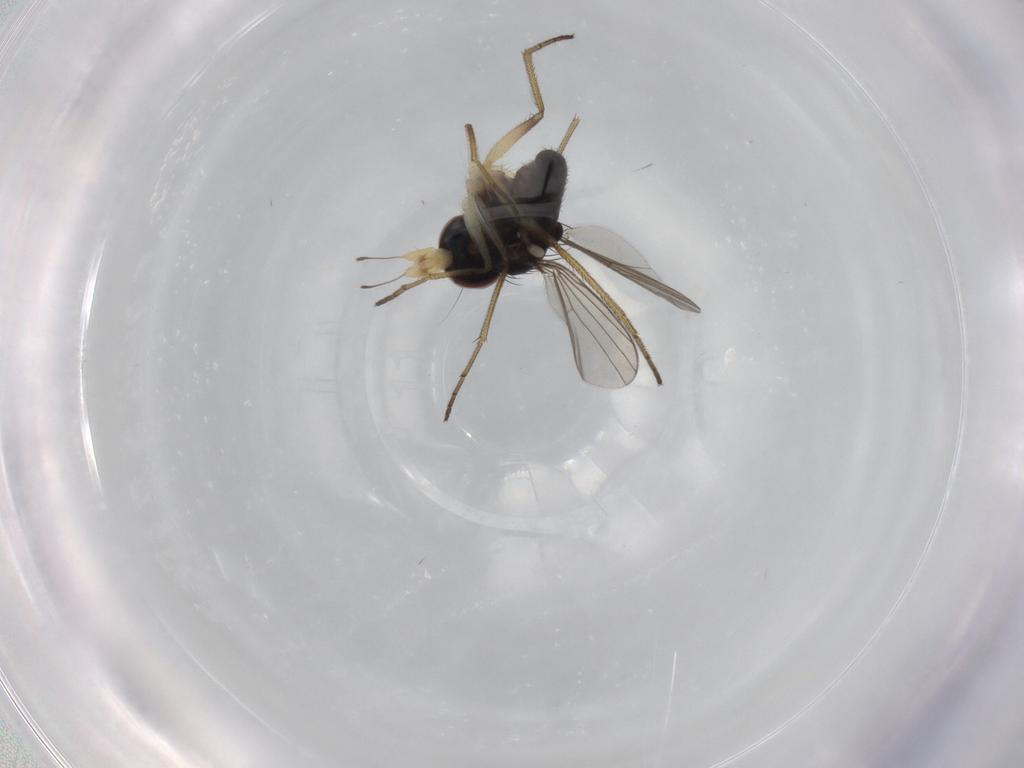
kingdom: Animalia
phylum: Arthropoda
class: Insecta
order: Diptera
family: Dolichopodidae
